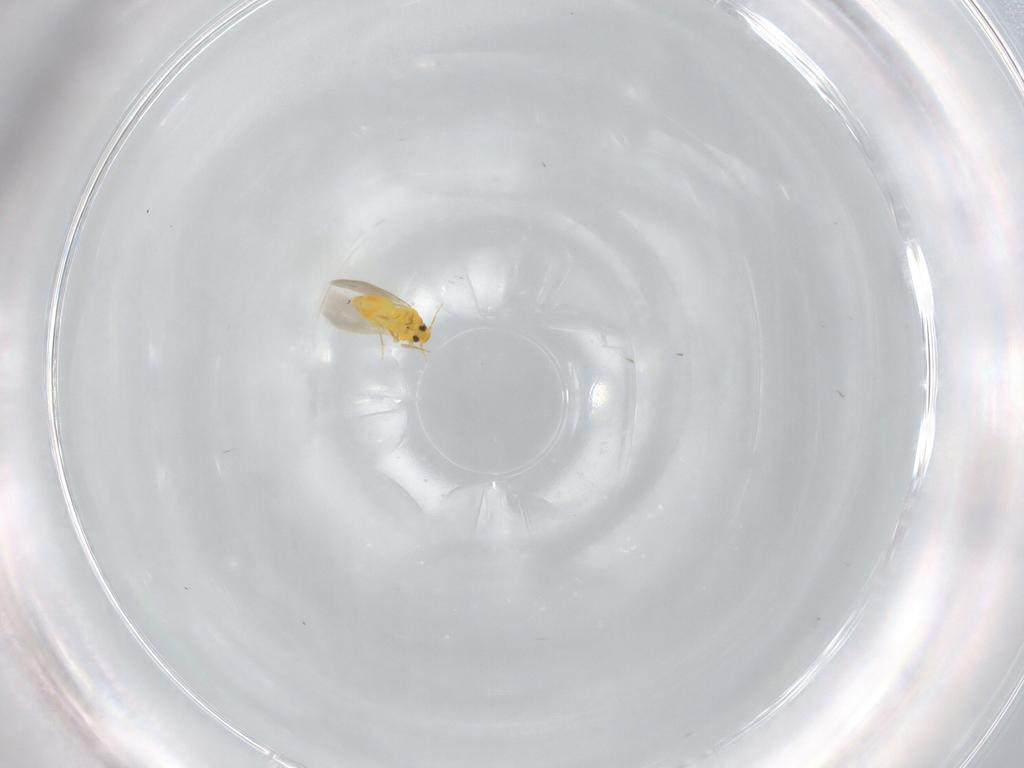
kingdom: Animalia
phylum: Arthropoda
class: Insecta
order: Hemiptera
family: Aleyrodidae
